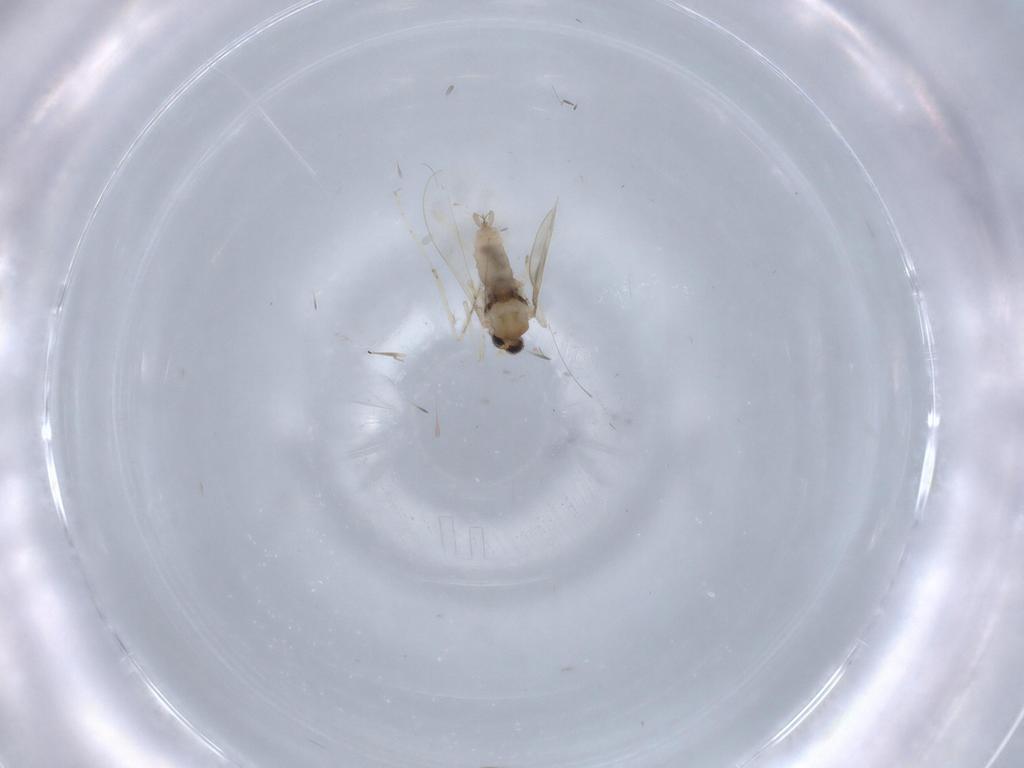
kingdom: Animalia
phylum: Arthropoda
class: Insecta
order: Diptera
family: Cecidomyiidae
